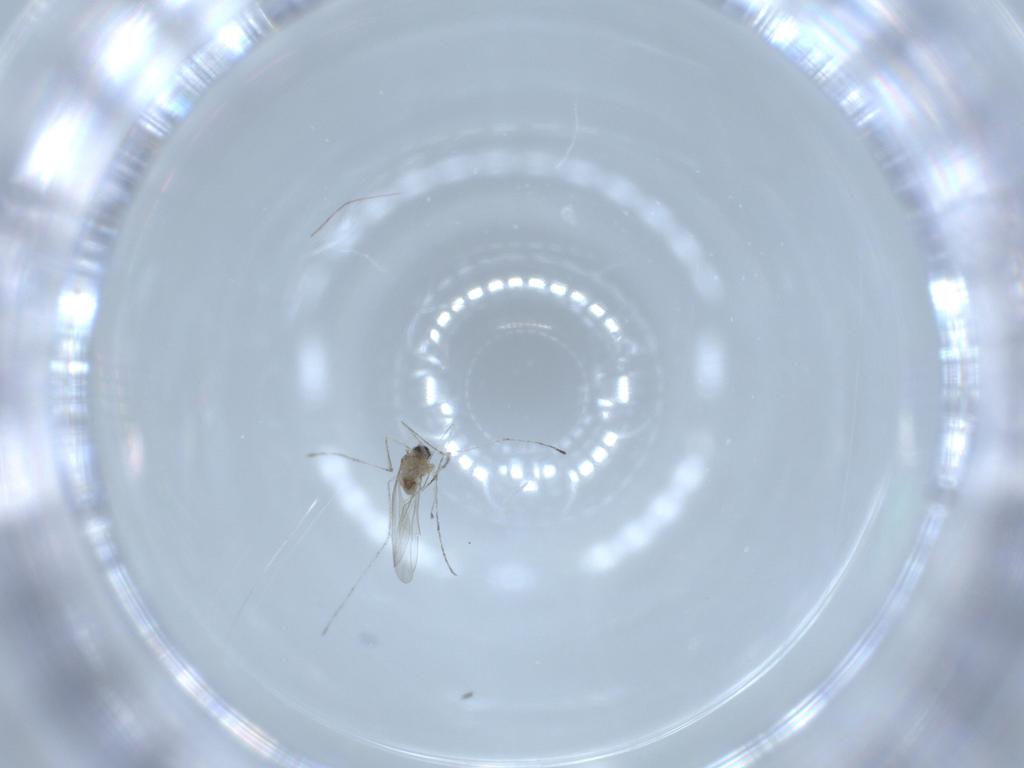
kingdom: Animalia
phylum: Arthropoda
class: Insecta
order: Diptera
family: Cecidomyiidae
